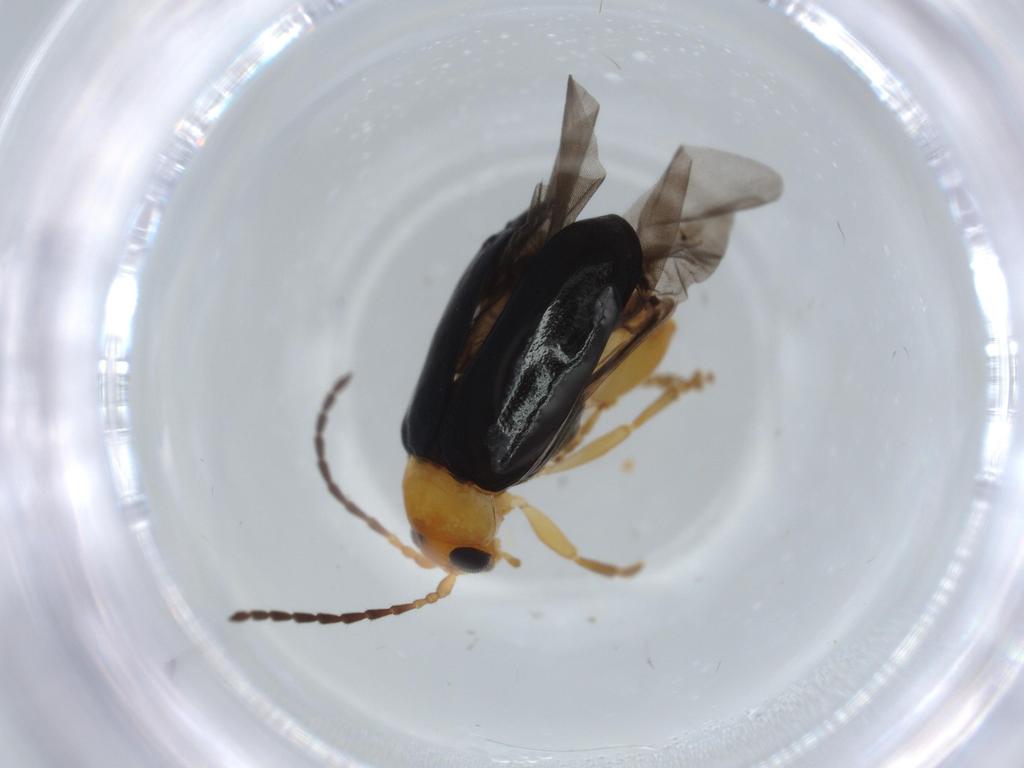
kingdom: Animalia
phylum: Arthropoda
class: Insecta
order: Coleoptera
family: Chrysomelidae
